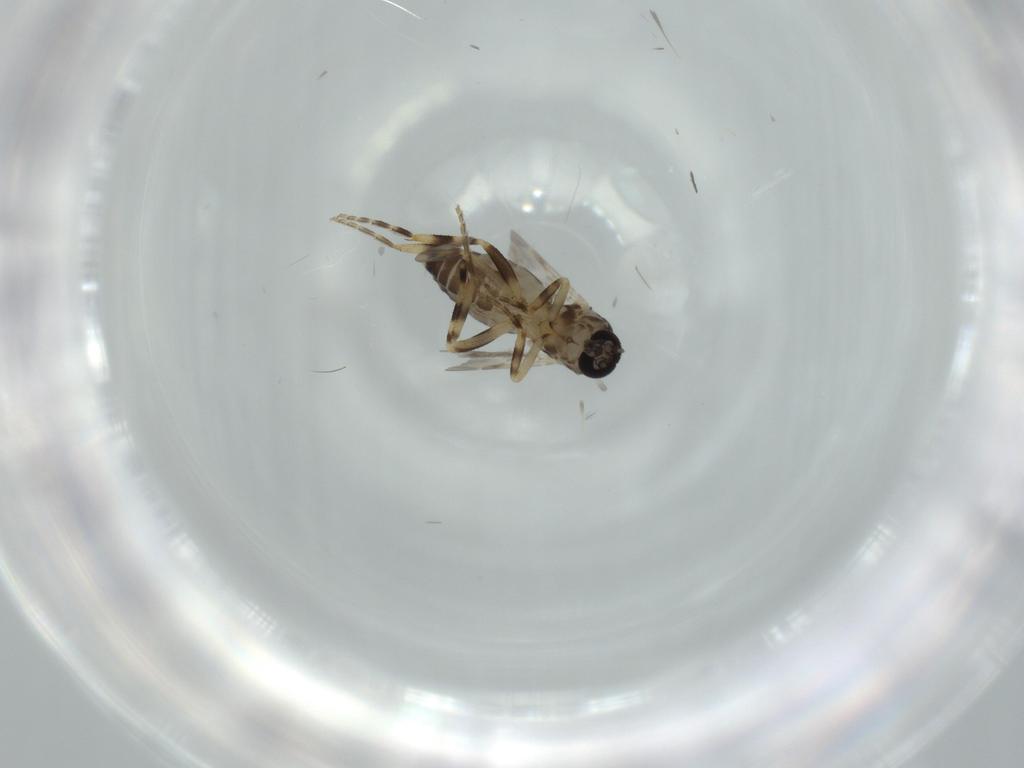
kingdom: Animalia
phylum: Arthropoda
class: Insecta
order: Diptera
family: Ceratopogonidae
